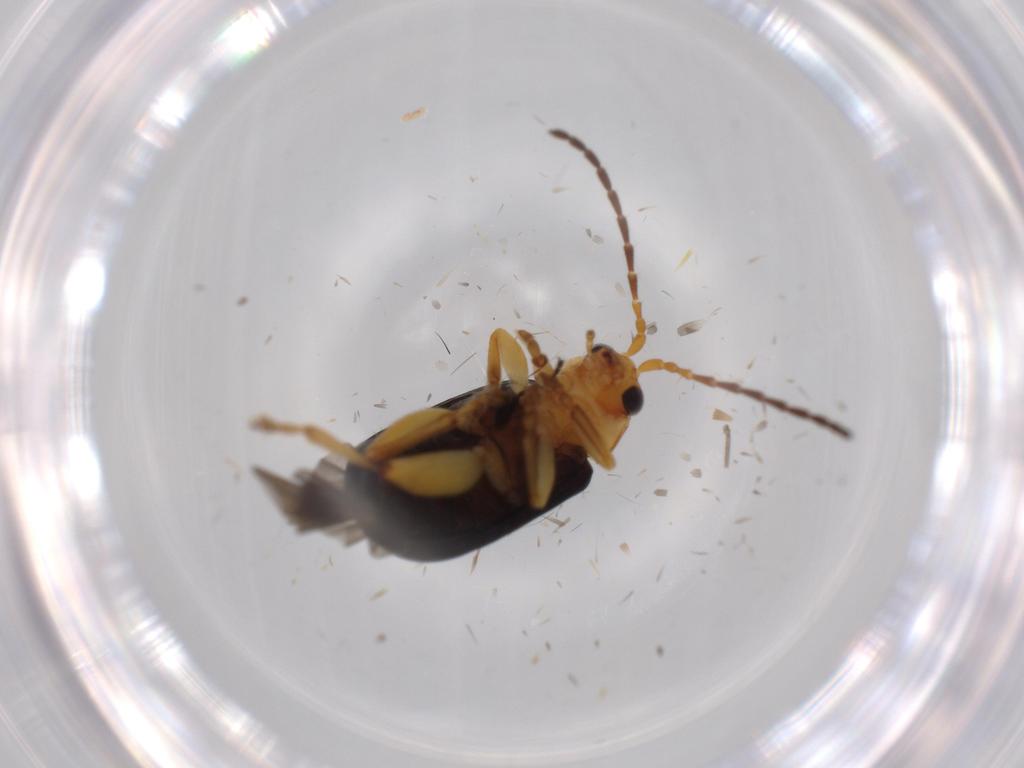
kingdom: Animalia
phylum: Arthropoda
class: Insecta
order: Coleoptera
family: Chrysomelidae
